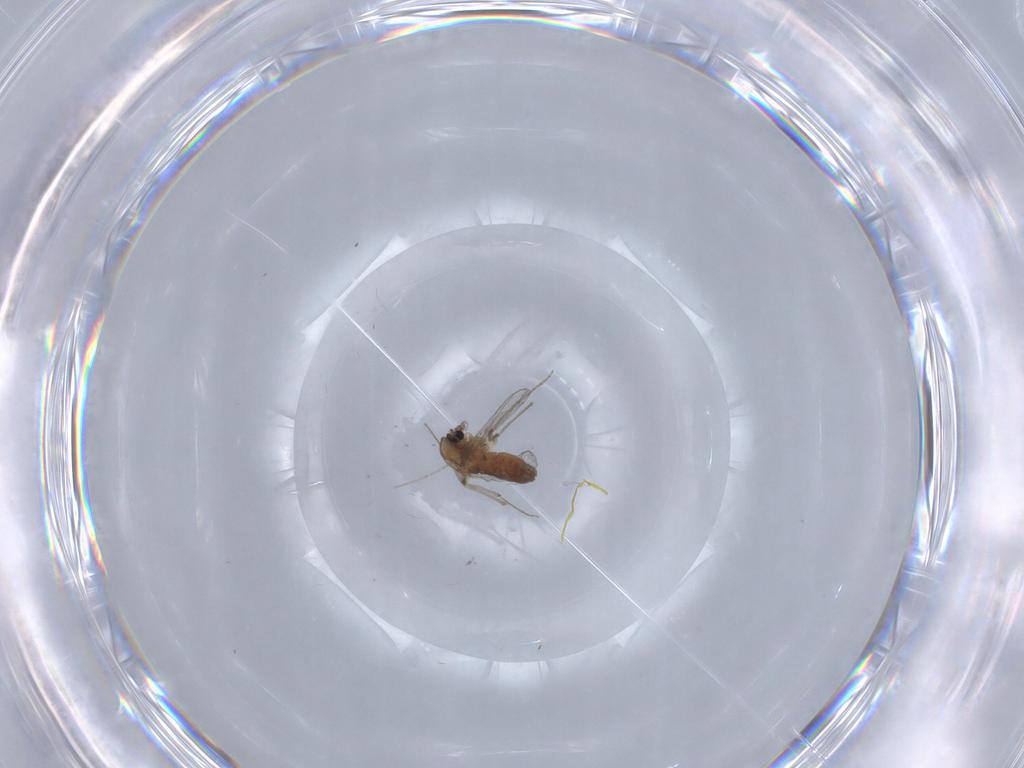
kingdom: Animalia
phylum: Arthropoda
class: Insecta
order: Diptera
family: Chironomidae
